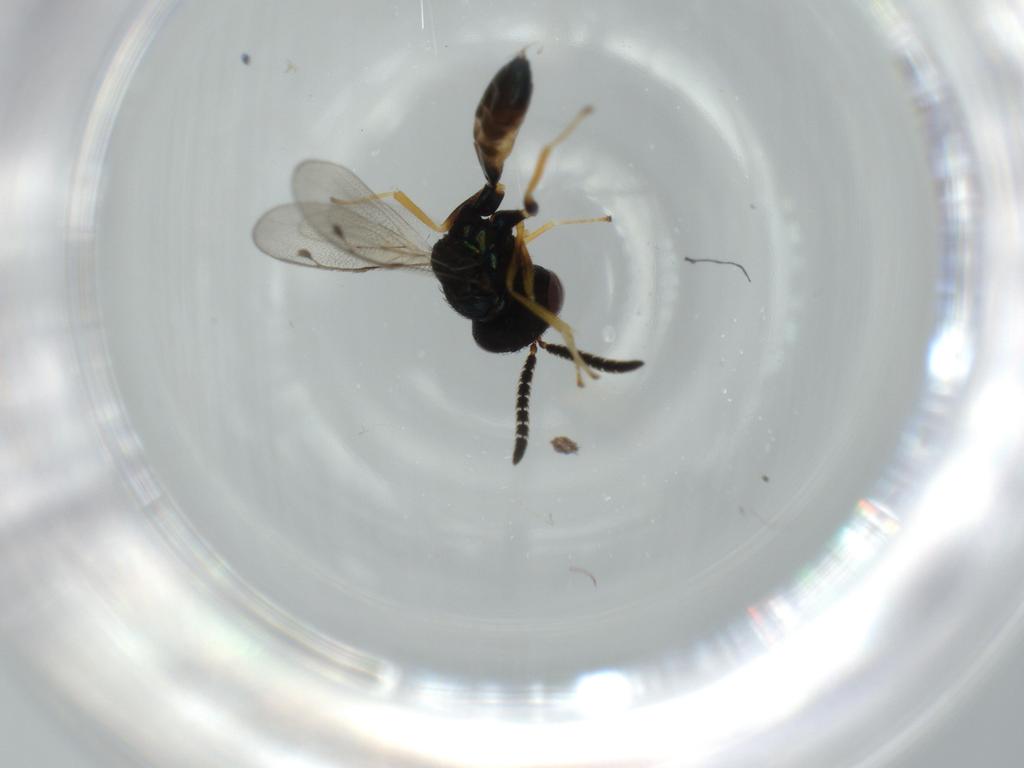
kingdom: Animalia
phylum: Arthropoda
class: Insecta
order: Hymenoptera
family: Agaonidae
